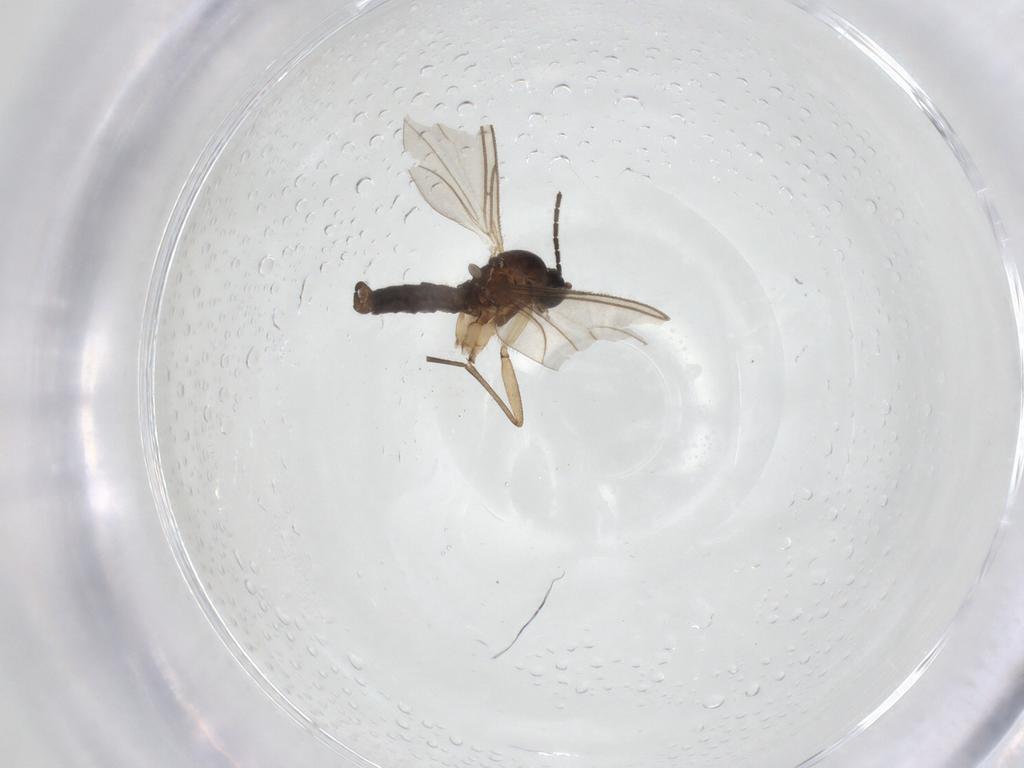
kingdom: Animalia
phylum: Arthropoda
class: Insecta
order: Diptera
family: Sciaridae
